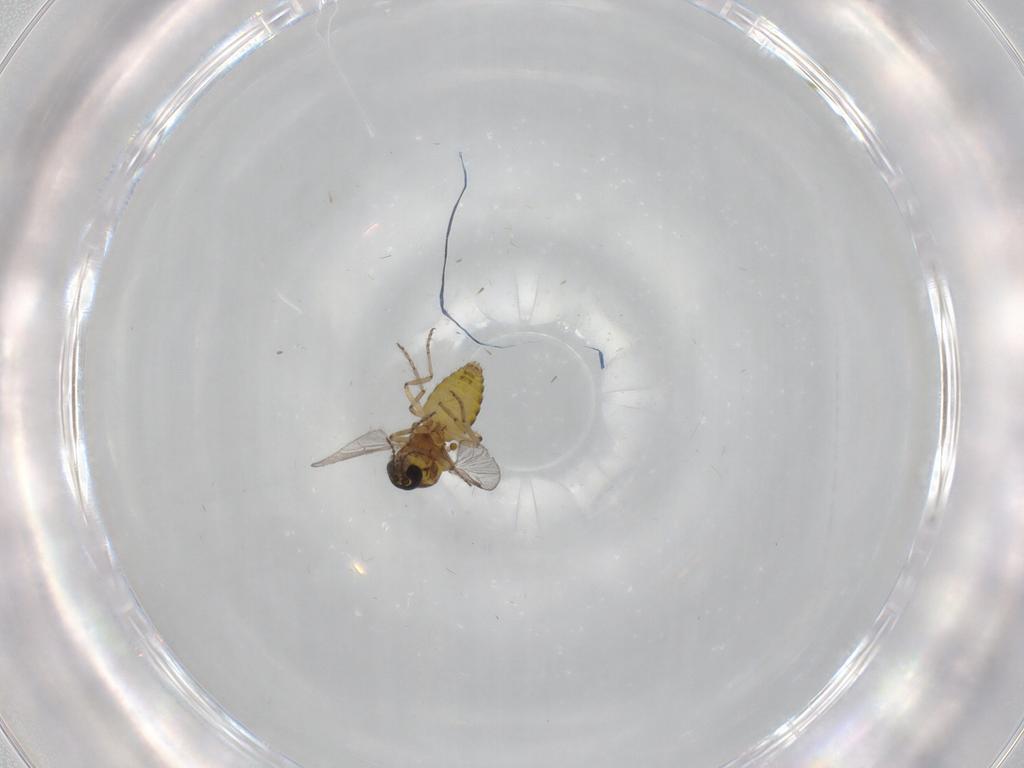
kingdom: Animalia
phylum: Arthropoda
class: Insecta
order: Diptera
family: Ceratopogonidae
